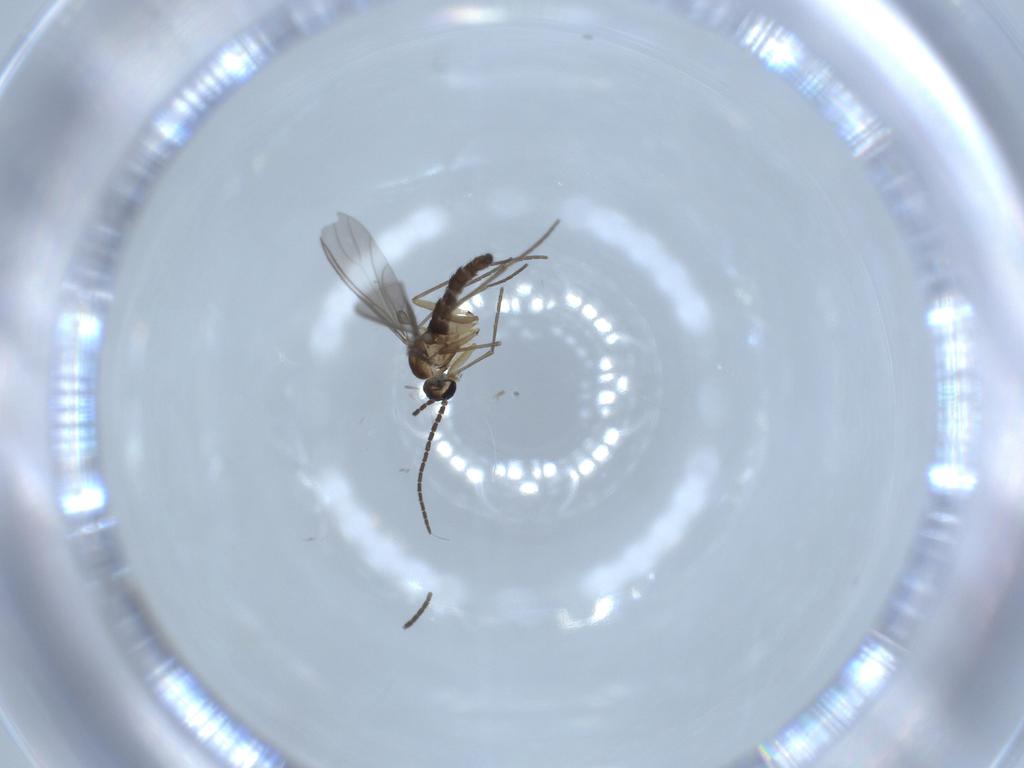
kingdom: Animalia
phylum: Arthropoda
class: Insecta
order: Diptera
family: Sciaridae
